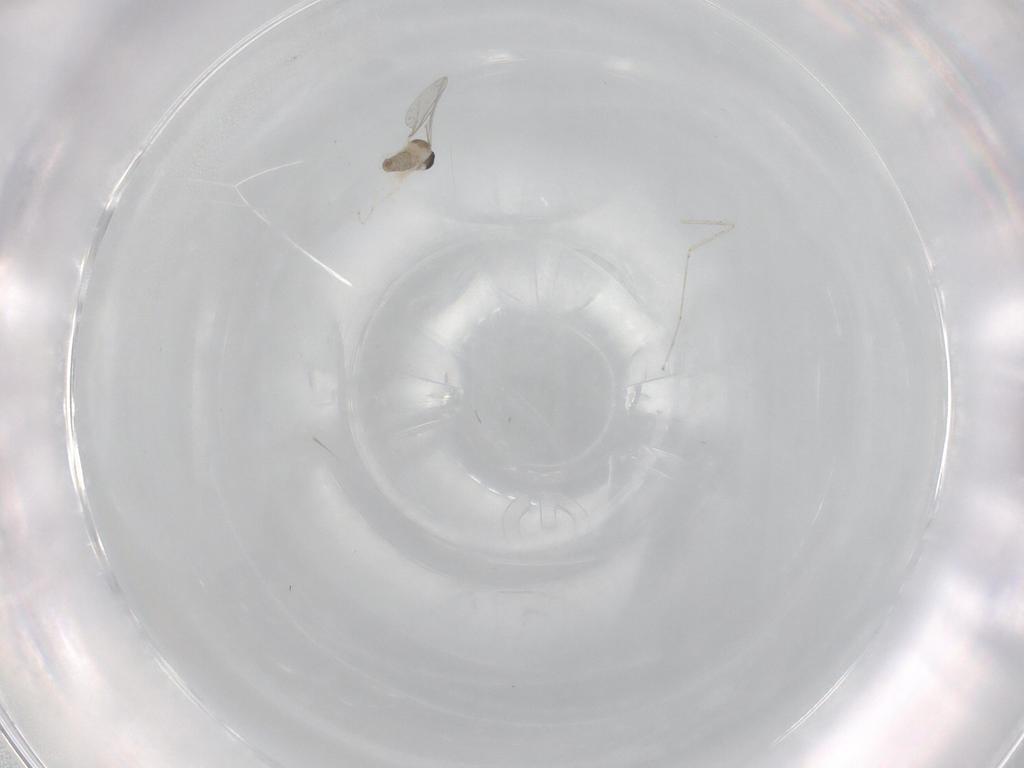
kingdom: Animalia
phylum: Arthropoda
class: Insecta
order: Diptera
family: Cecidomyiidae
